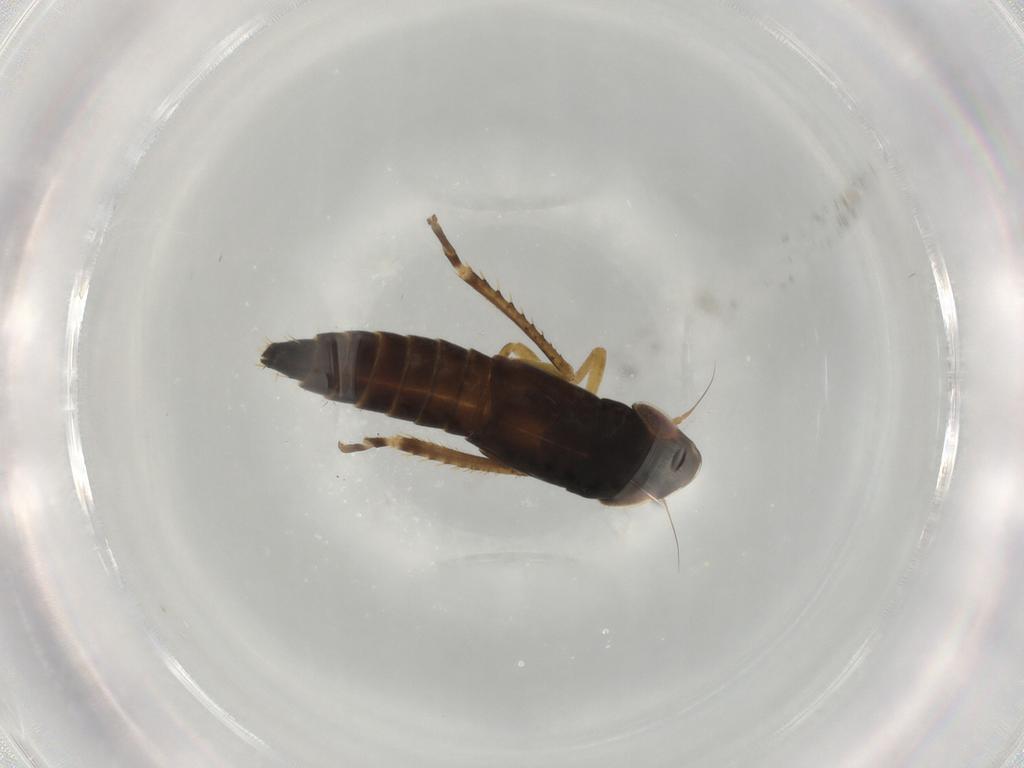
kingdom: Animalia
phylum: Arthropoda
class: Insecta
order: Hemiptera
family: Cicadellidae
